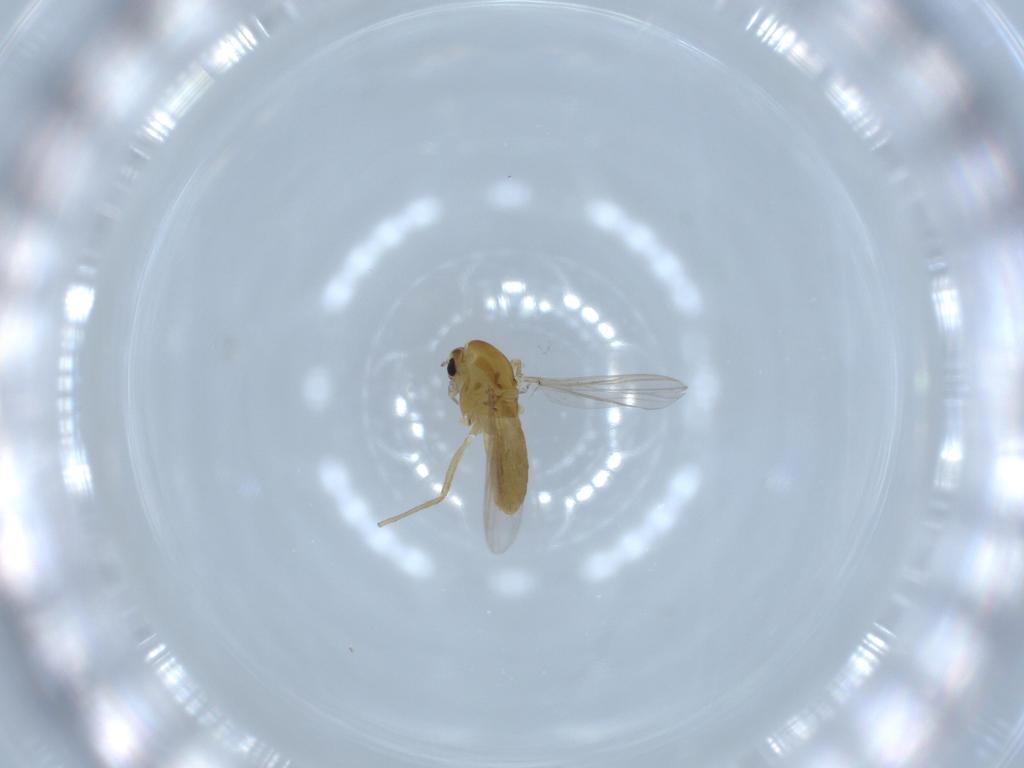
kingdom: Animalia
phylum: Arthropoda
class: Insecta
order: Diptera
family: Chironomidae
